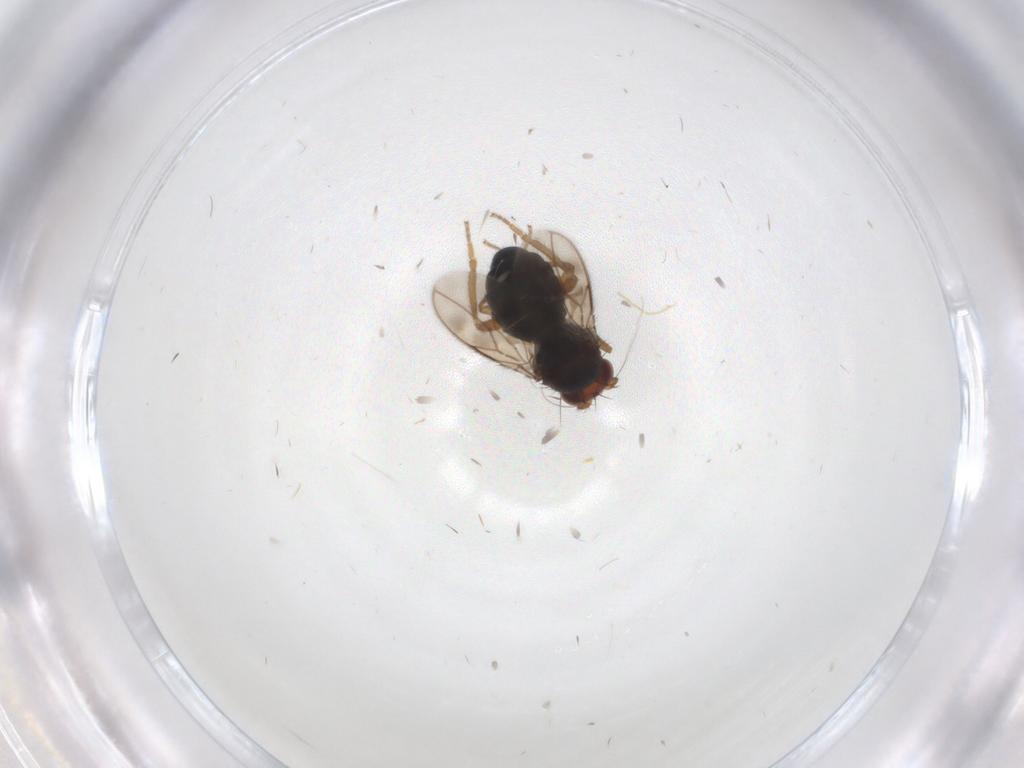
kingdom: Animalia
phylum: Arthropoda
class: Insecta
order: Diptera
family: Sphaeroceridae
